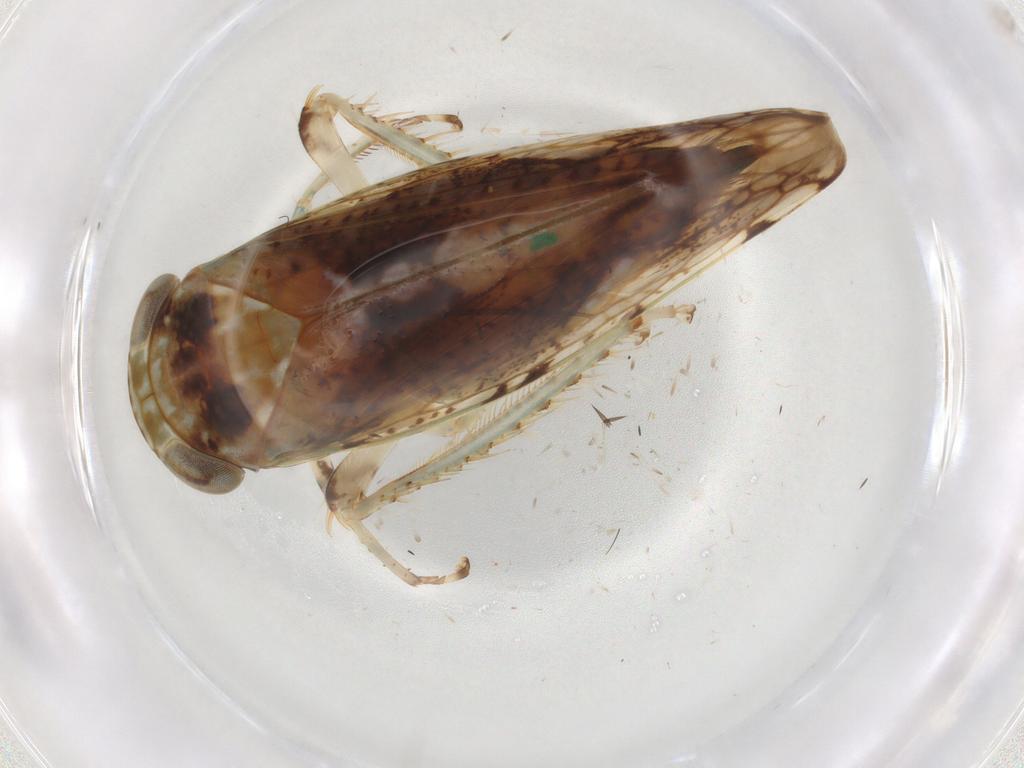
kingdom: Animalia
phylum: Arthropoda
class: Insecta
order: Hemiptera
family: Cicadellidae
